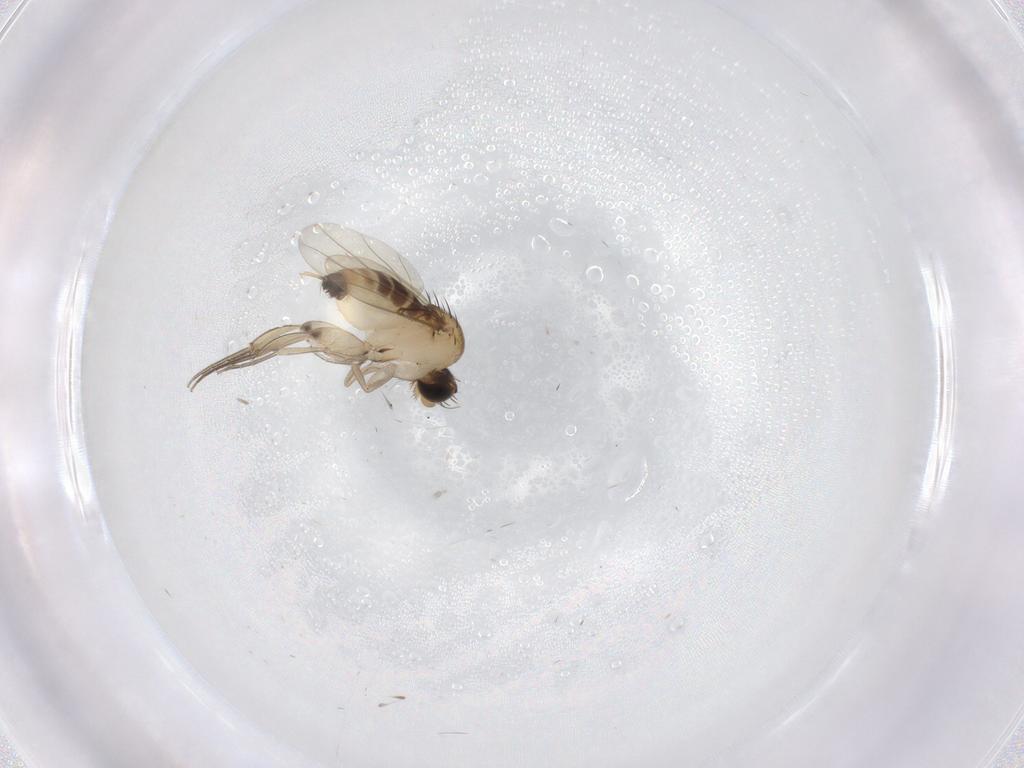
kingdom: Animalia
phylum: Arthropoda
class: Insecta
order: Diptera
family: Phoridae
